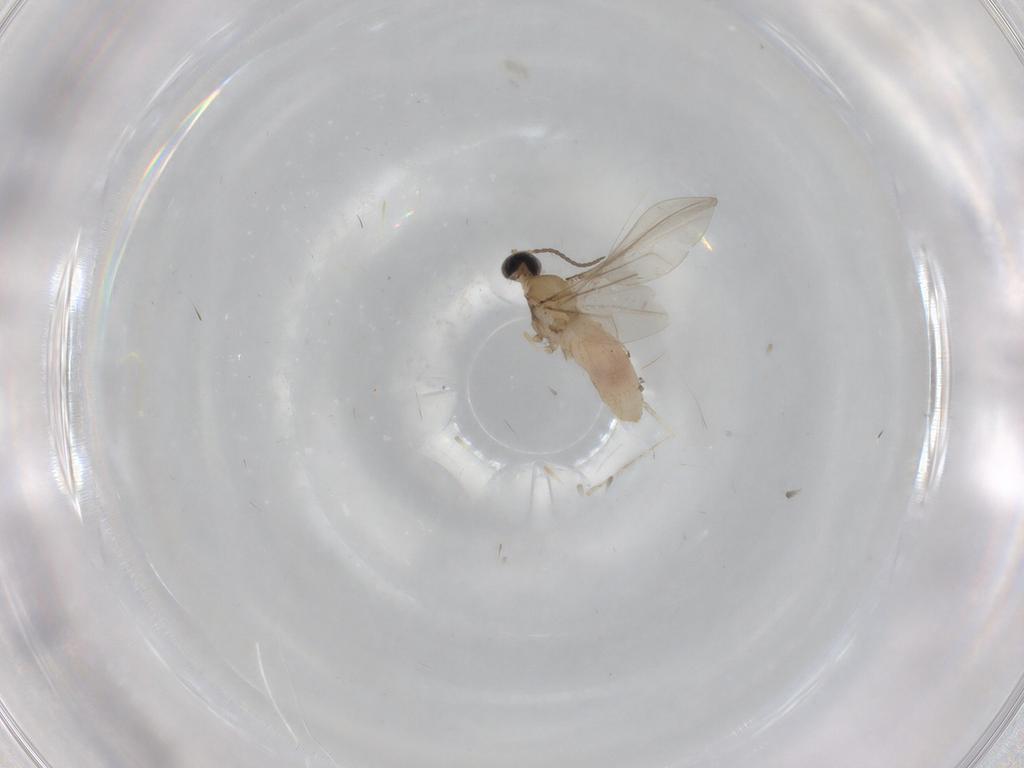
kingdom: Animalia
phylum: Arthropoda
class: Insecta
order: Diptera
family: Cecidomyiidae
